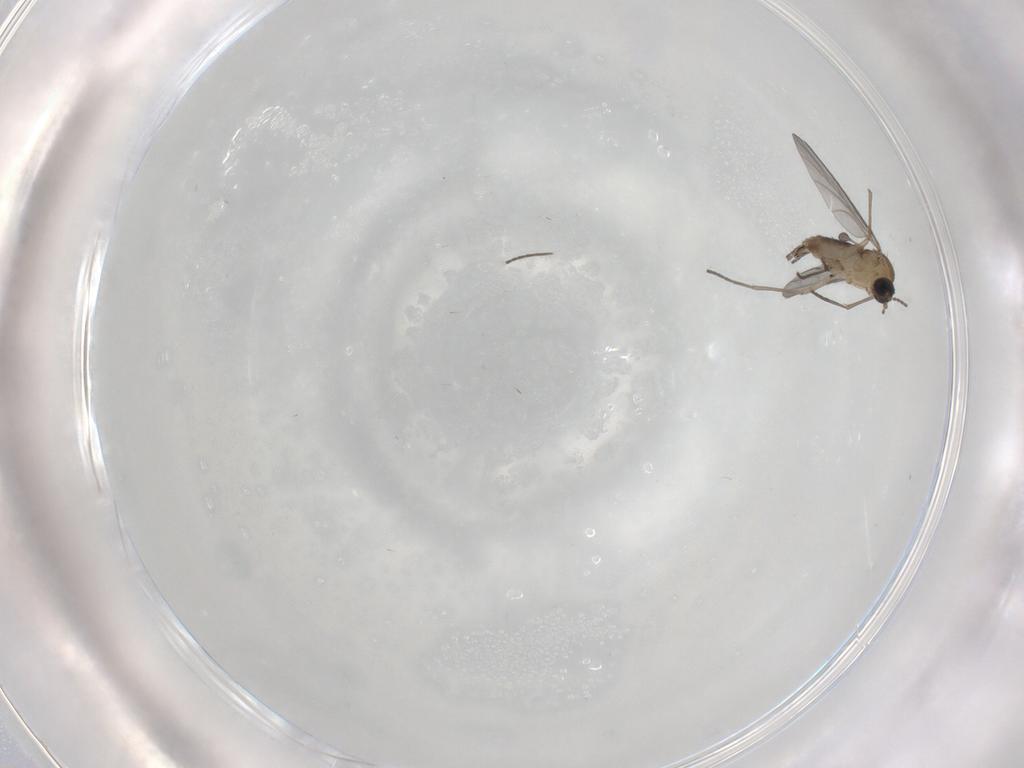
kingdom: Animalia
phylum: Arthropoda
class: Insecta
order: Diptera
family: Sciaridae
